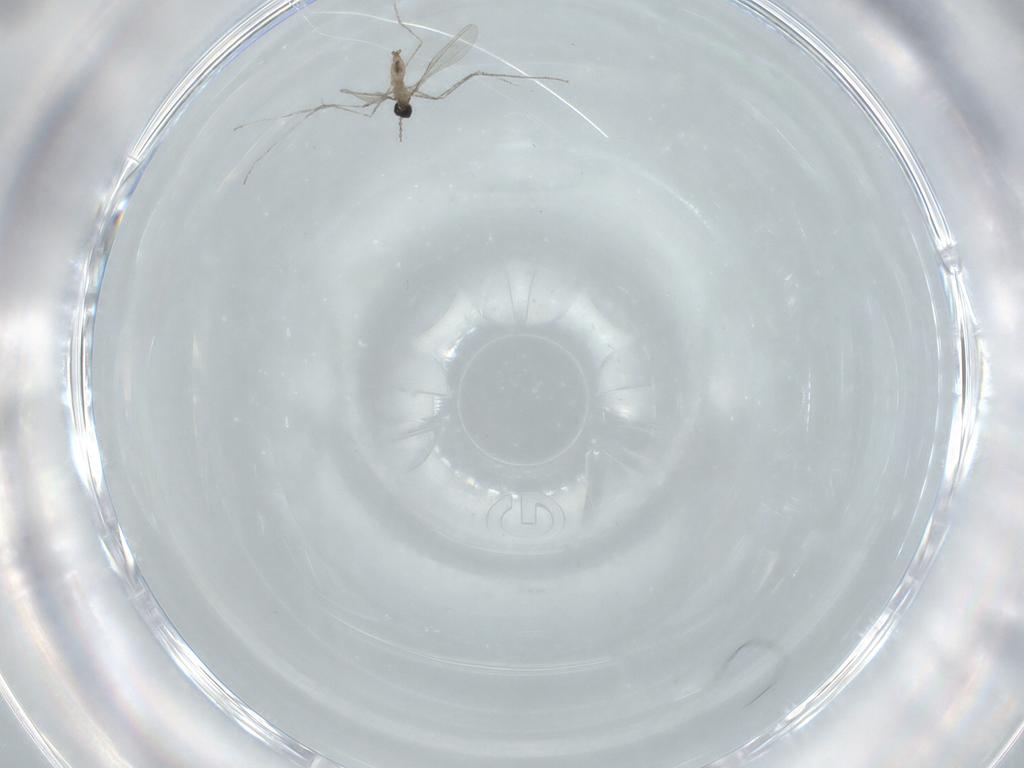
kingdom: Animalia
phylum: Arthropoda
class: Insecta
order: Diptera
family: Cecidomyiidae
